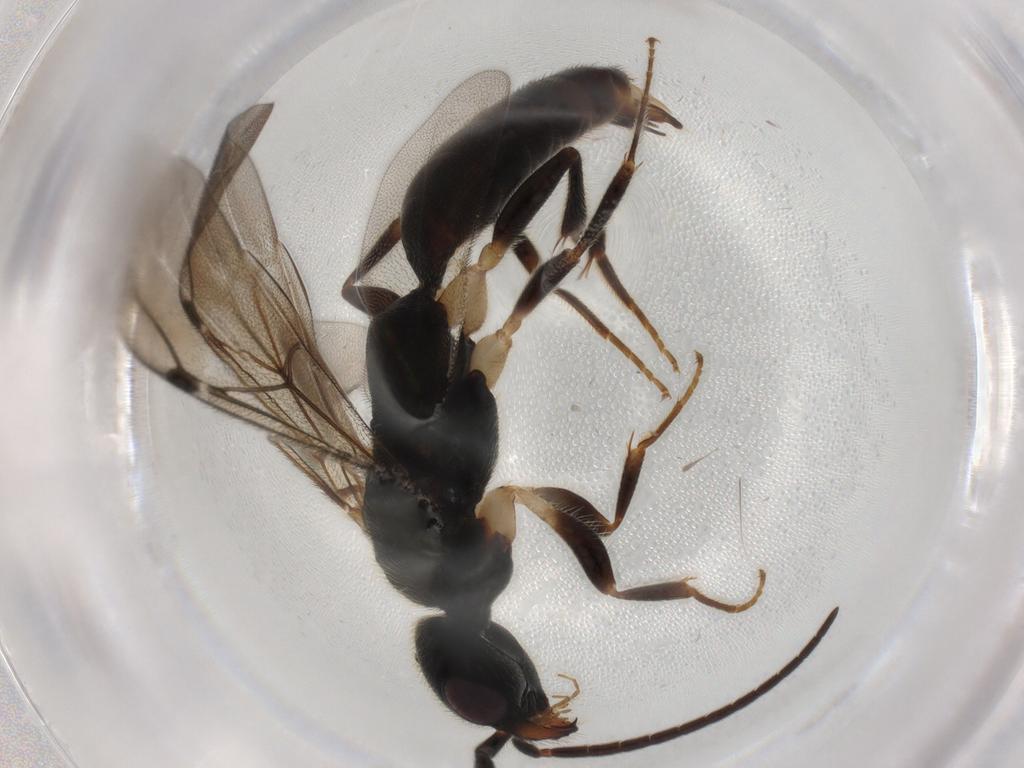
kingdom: Animalia
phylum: Arthropoda
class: Insecta
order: Hymenoptera
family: Bethylidae
